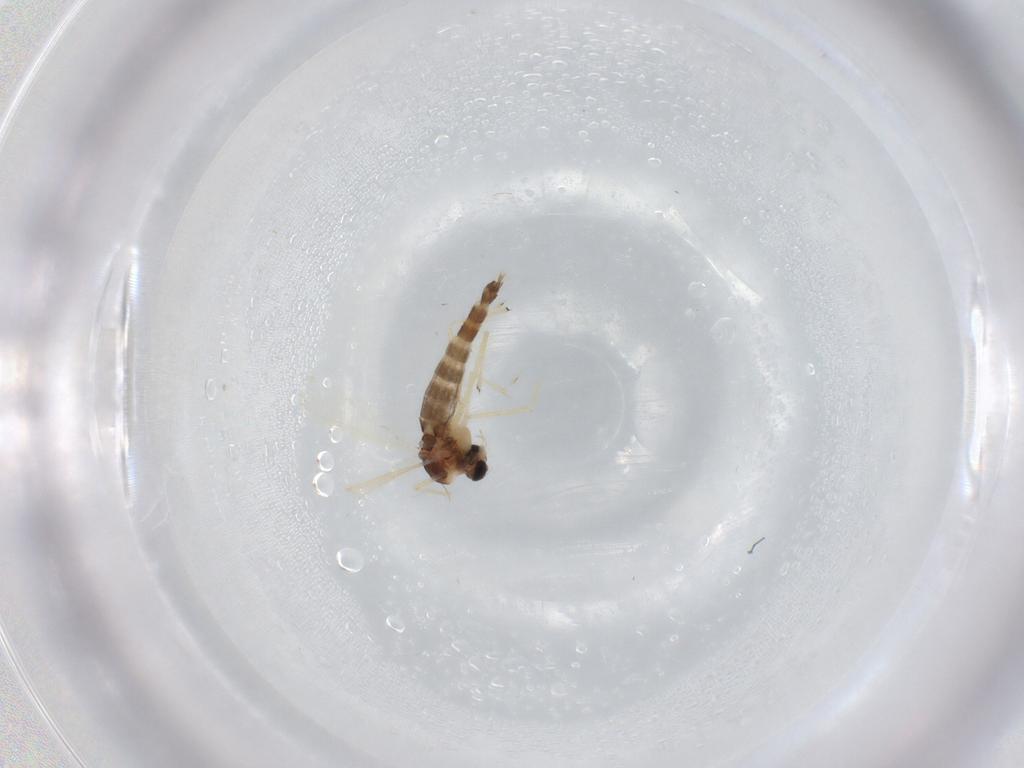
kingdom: Animalia
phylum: Arthropoda
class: Insecta
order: Diptera
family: Chironomidae
